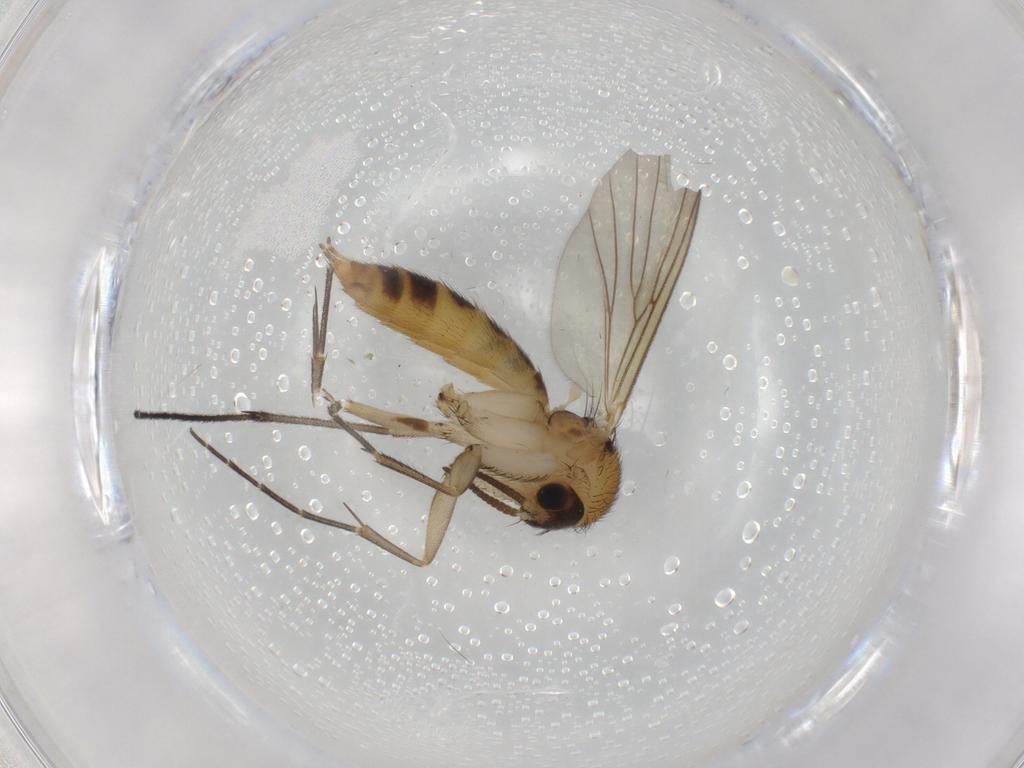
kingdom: Animalia
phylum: Arthropoda
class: Insecta
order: Diptera
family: Mycetophilidae
